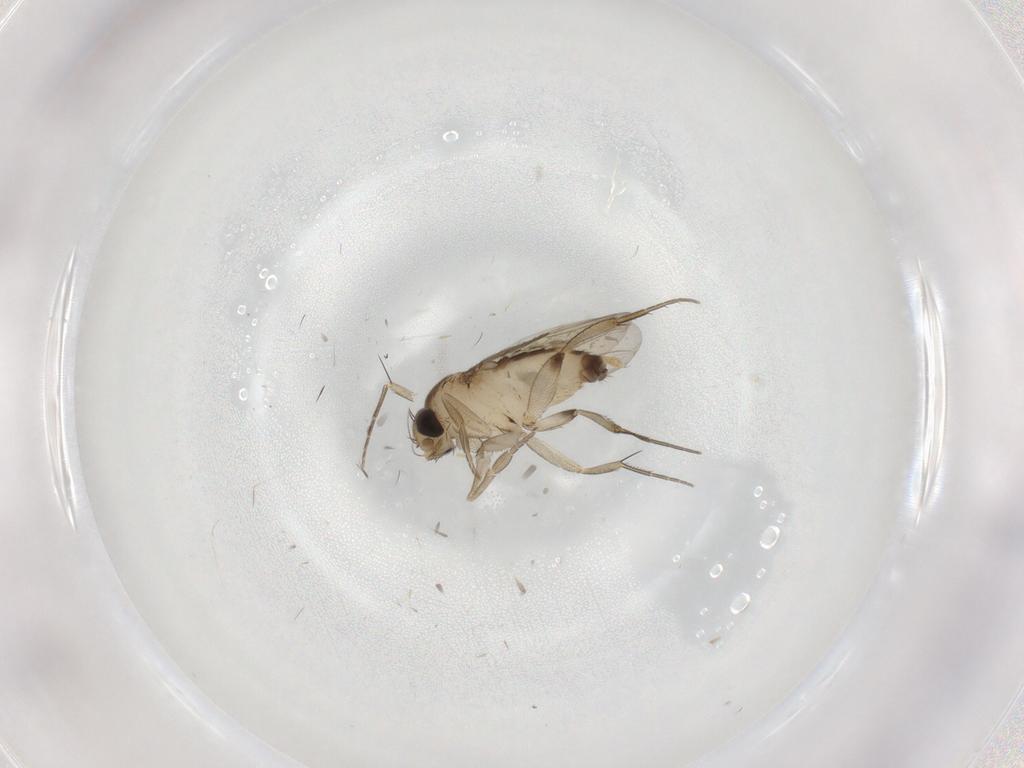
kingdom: Animalia
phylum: Arthropoda
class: Insecta
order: Diptera
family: Phoridae
